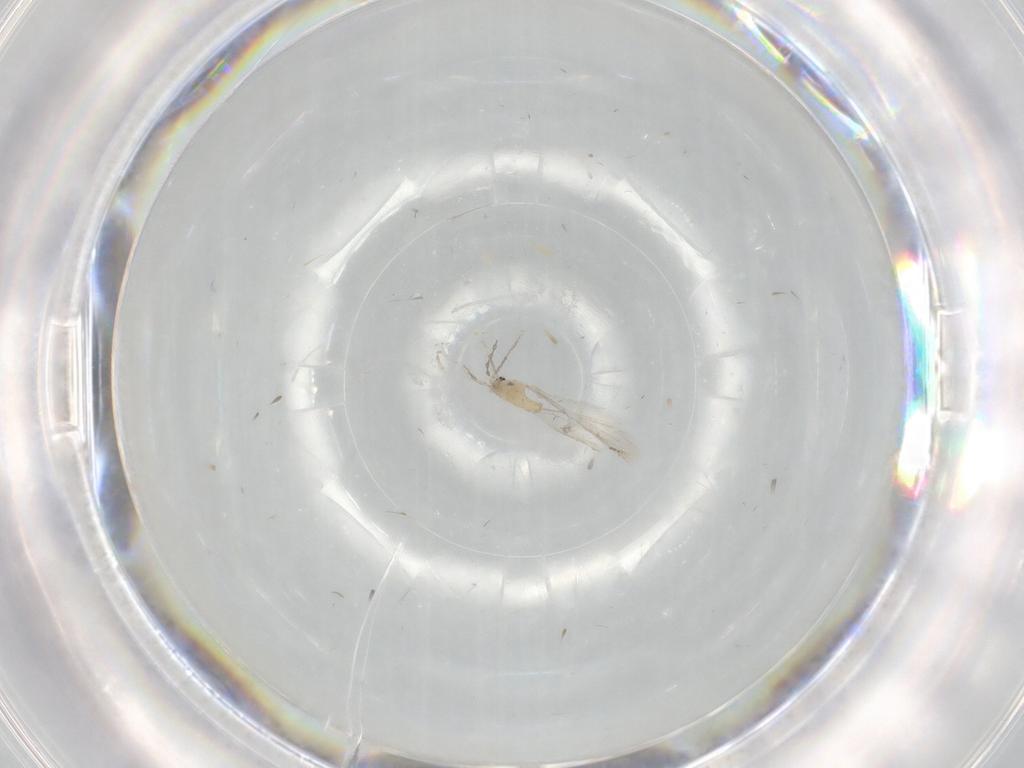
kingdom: Animalia
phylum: Arthropoda
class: Insecta
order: Diptera
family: Cecidomyiidae
